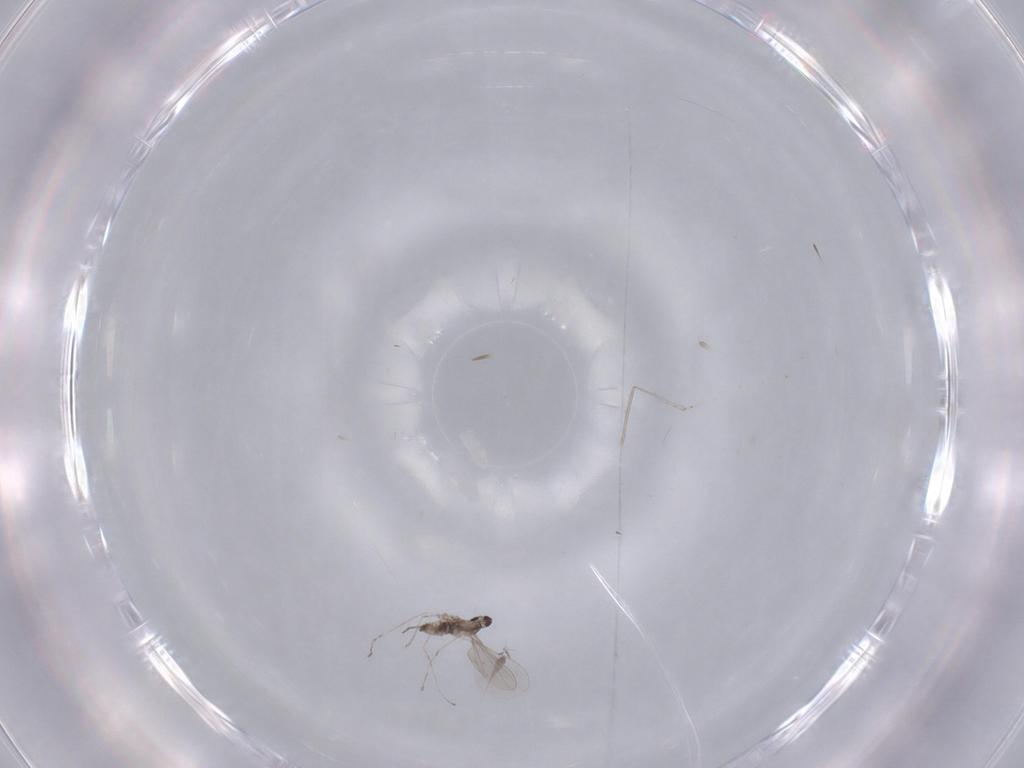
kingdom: Animalia
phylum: Arthropoda
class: Insecta
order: Diptera
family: Cecidomyiidae
